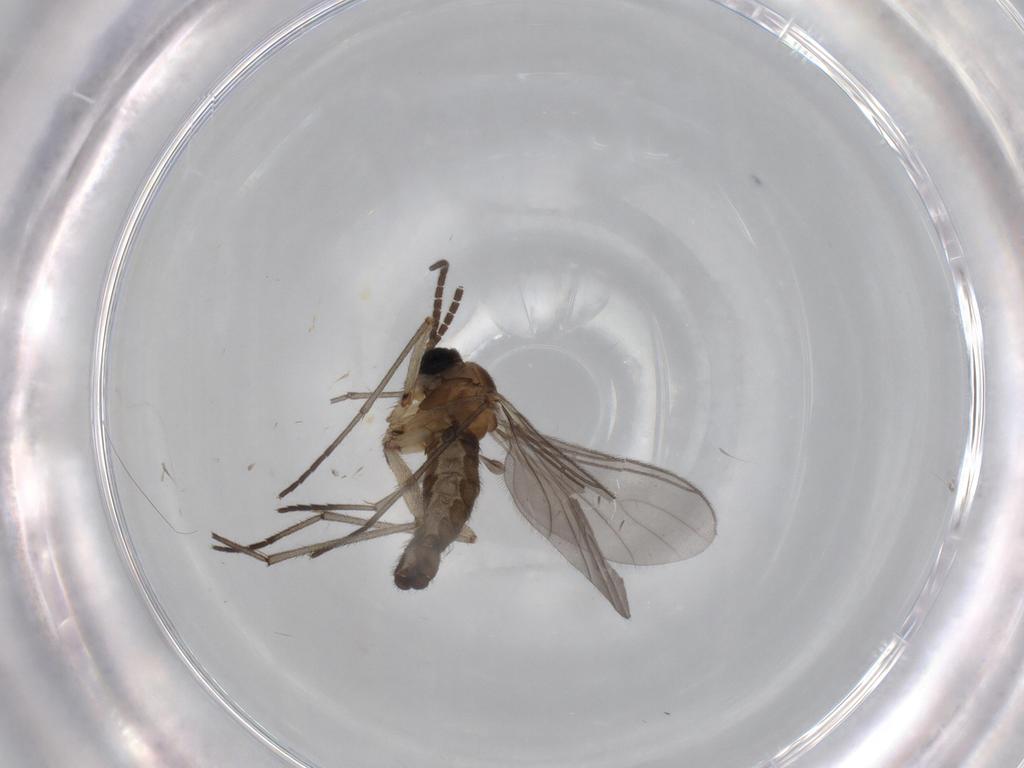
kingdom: Animalia
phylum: Arthropoda
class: Insecta
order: Diptera
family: Sciaridae
